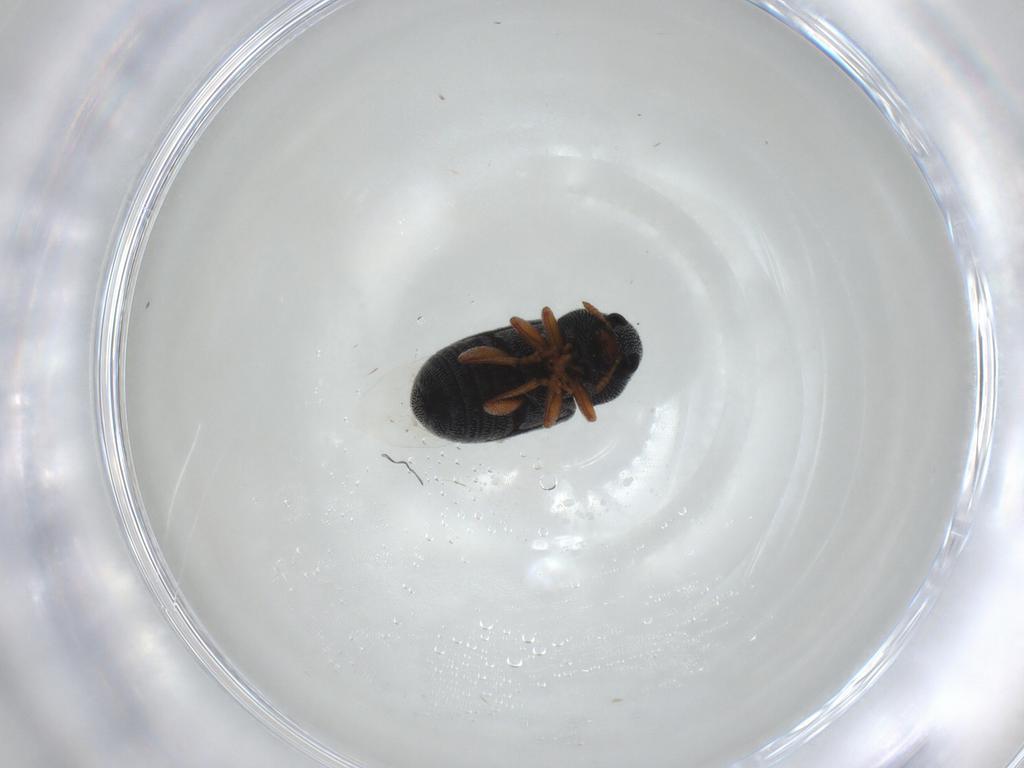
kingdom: Animalia
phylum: Arthropoda
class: Insecta
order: Coleoptera
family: Anthribidae
